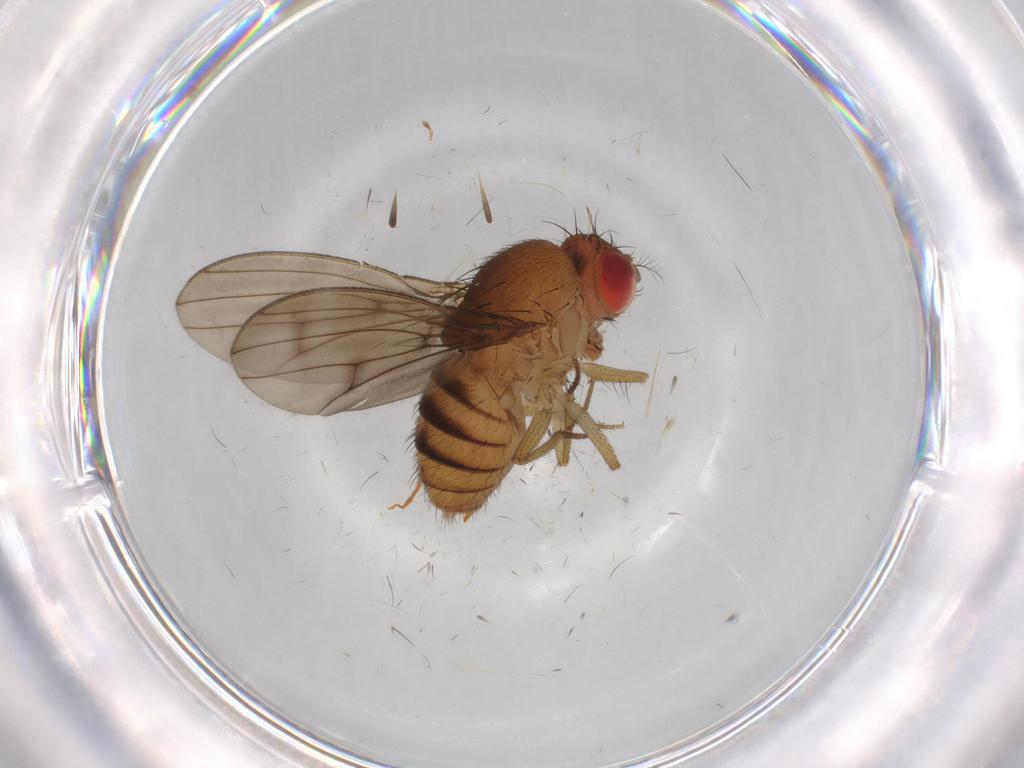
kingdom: Animalia
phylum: Arthropoda
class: Insecta
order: Diptera
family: Drosophilidae
